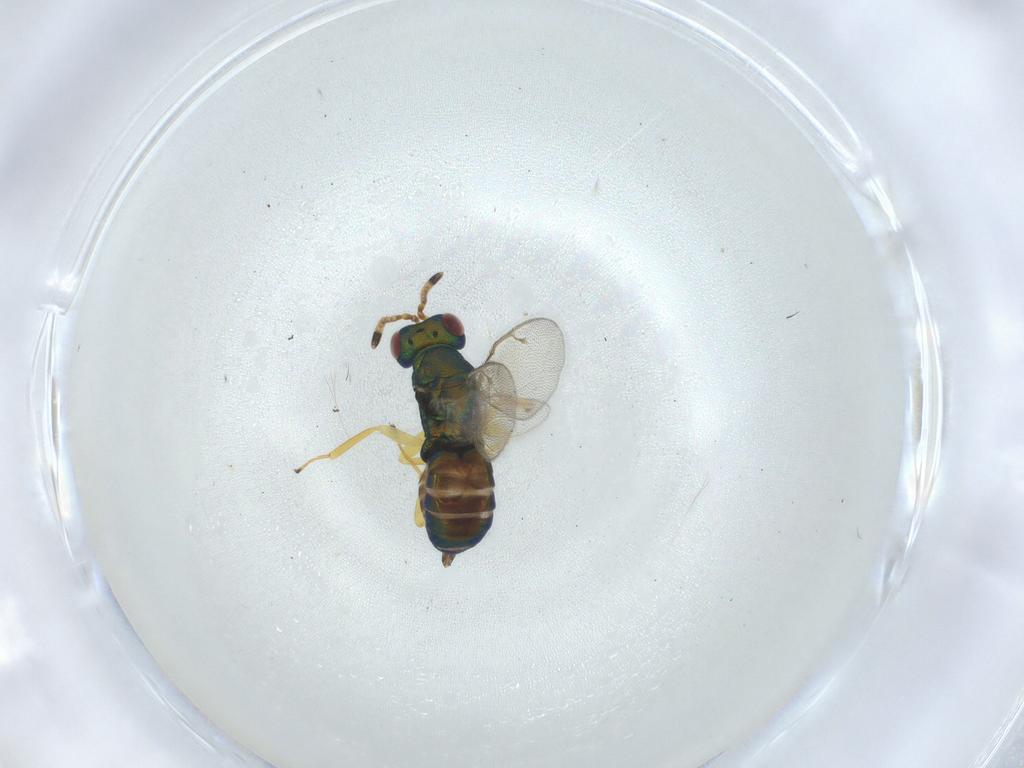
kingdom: Animalia
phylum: Arthropoda
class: Insecta
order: Hymenoptera
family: Pteromalidae
